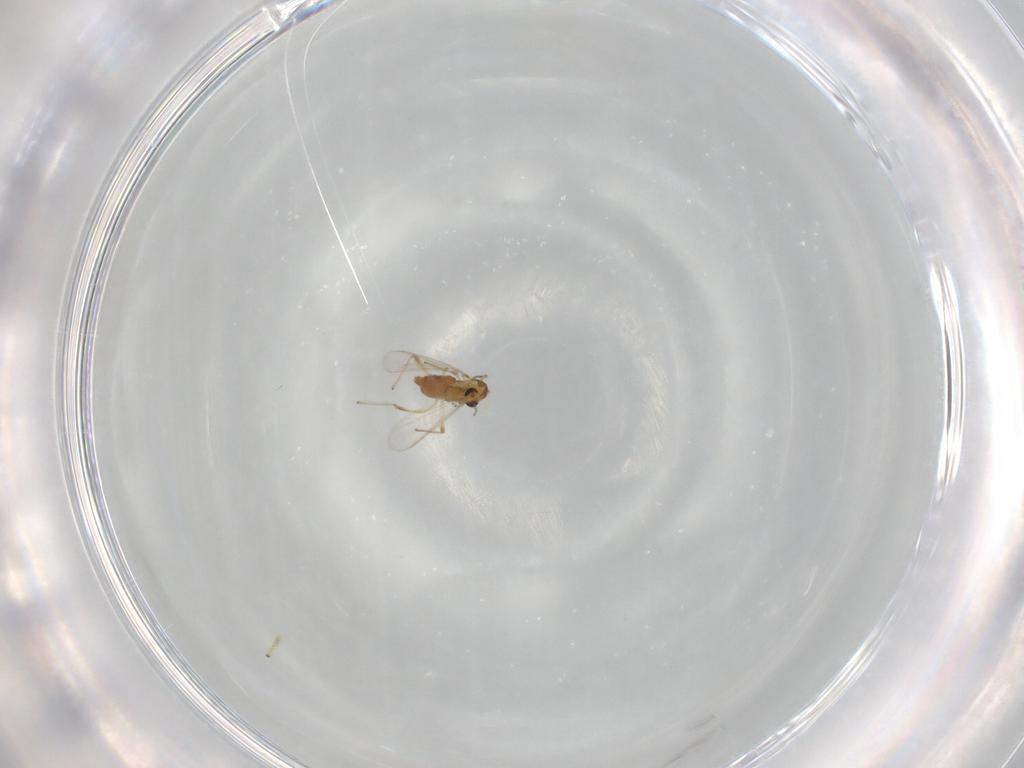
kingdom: Animalia
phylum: Arthropoda
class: Insecta
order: Diptera
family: Chironomidae
